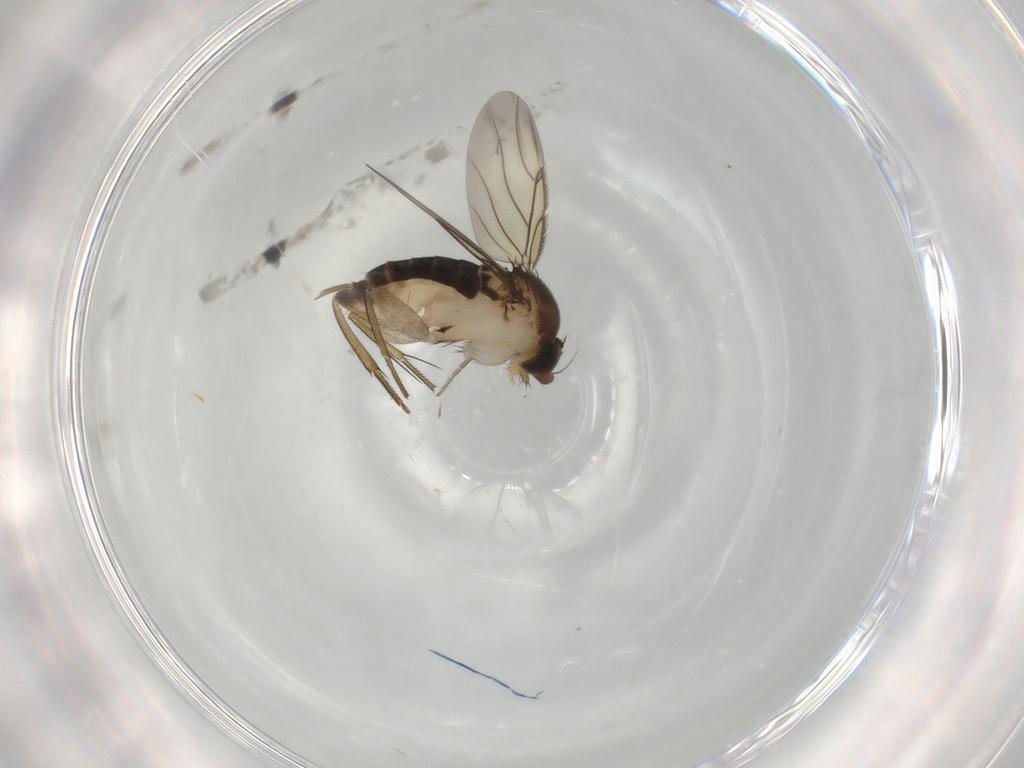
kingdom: Animalia
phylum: Arthropoda
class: Insecta
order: Diptera
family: Phoridae
